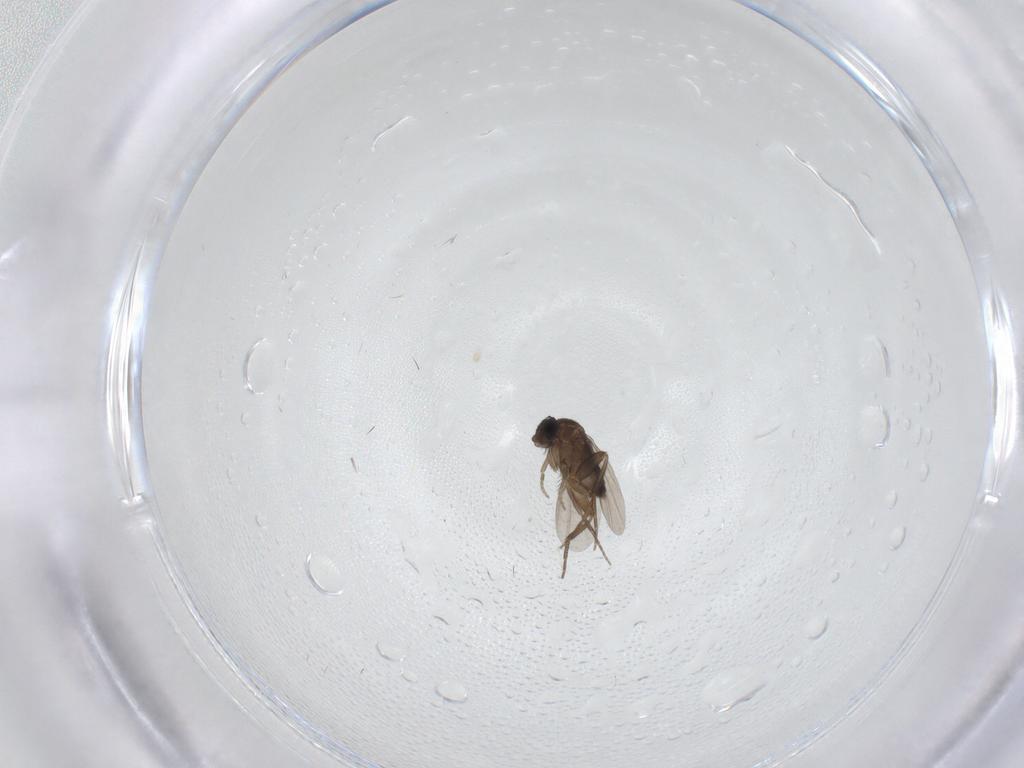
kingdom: Animalia
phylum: Arthropoda
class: Insecta
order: Diptera
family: Phoridae
